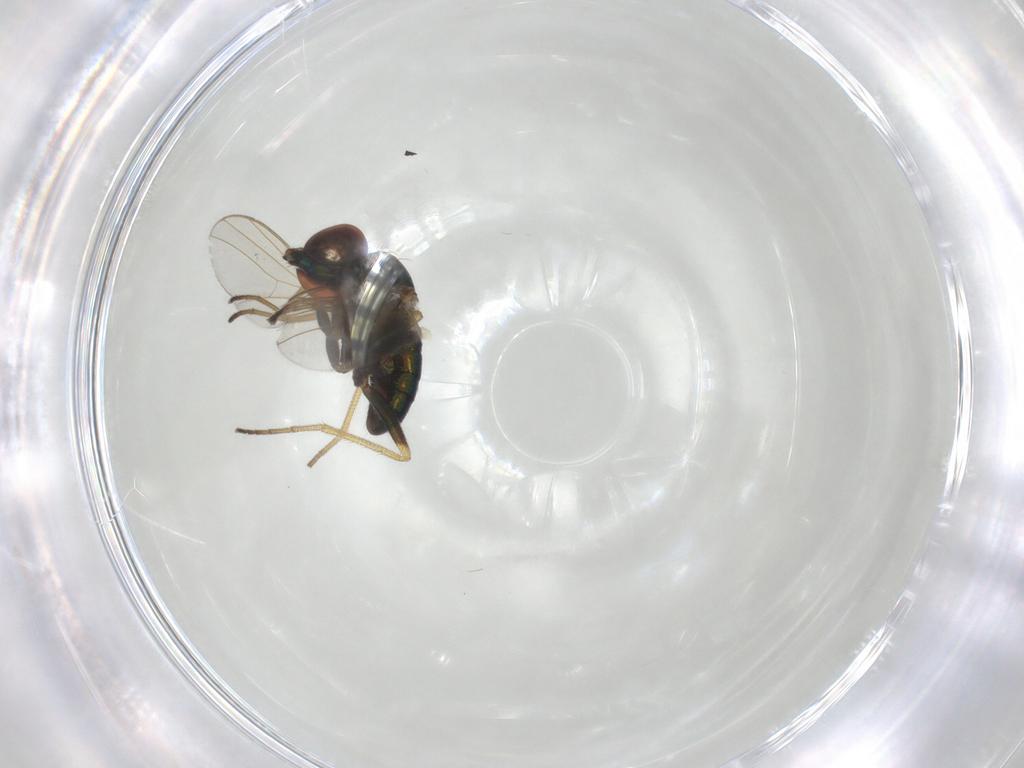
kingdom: Animalia
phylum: Arthropoda
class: Insecta
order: Diptera
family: Dolichopodidae
